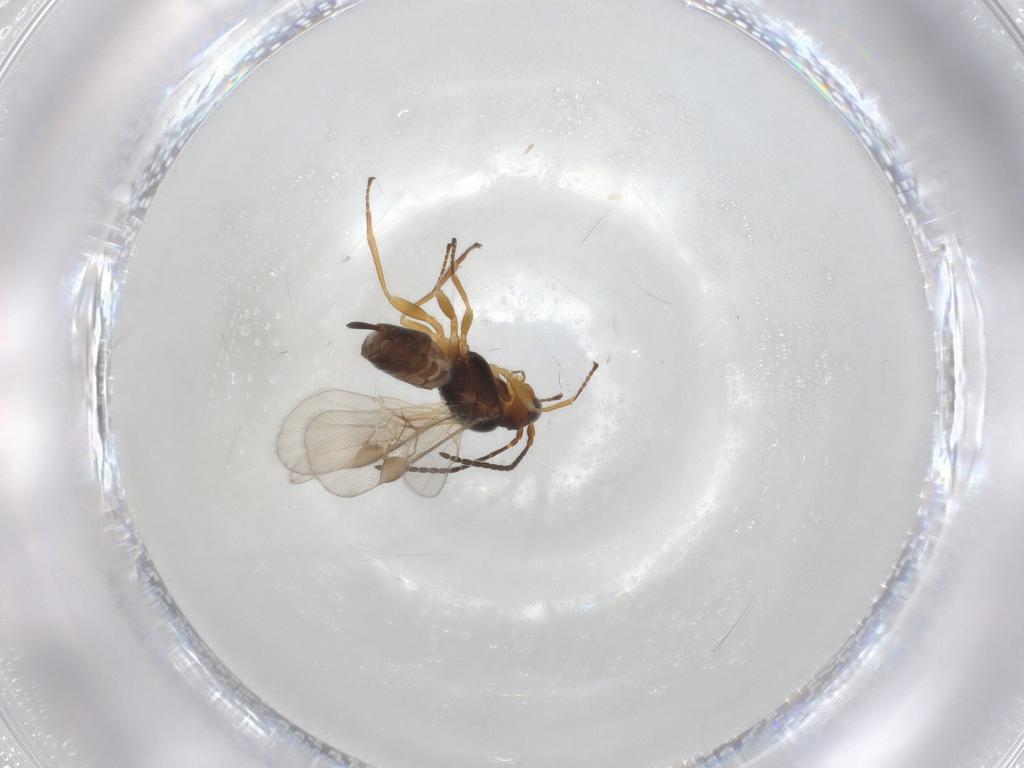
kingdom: Animalia
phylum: Arthropoda
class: Insecta
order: Hymenoptera
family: Braconidae
